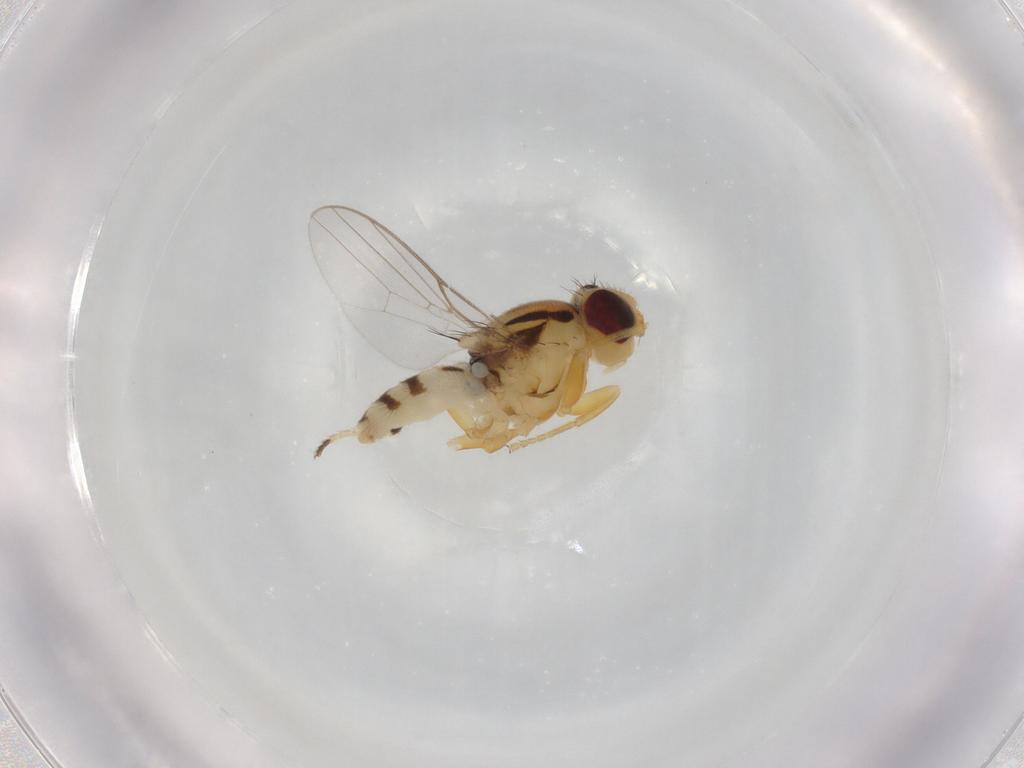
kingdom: Animalia
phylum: Arthropoda
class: Insecta
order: Diptera
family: Chloropidae
